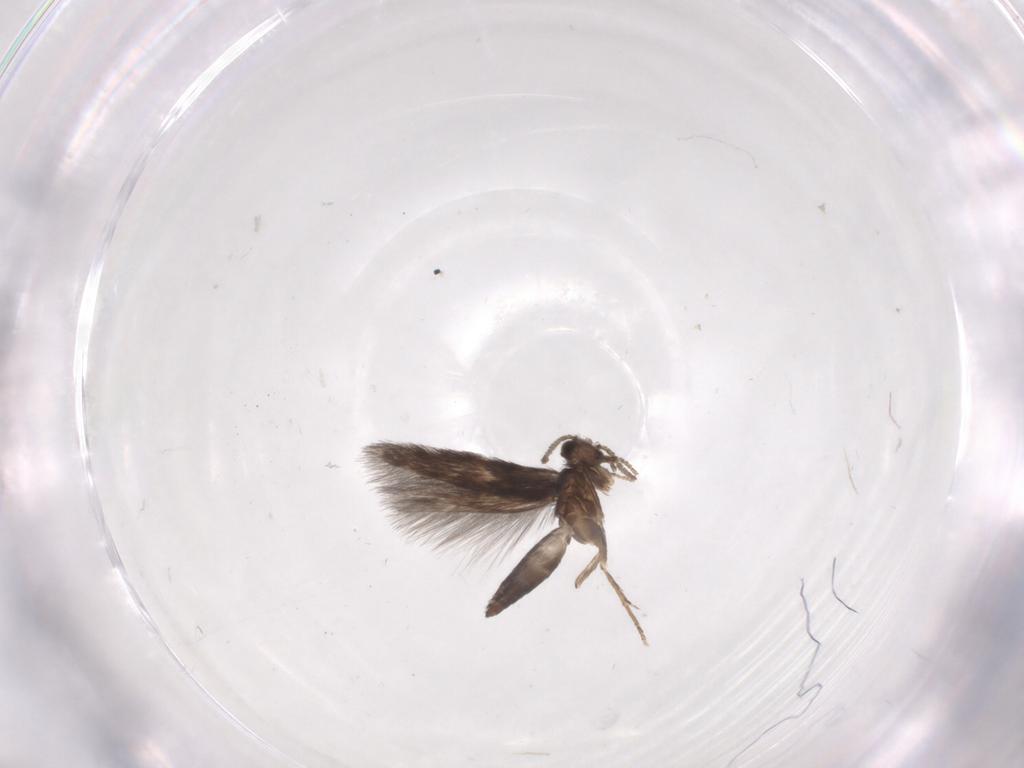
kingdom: Animalia
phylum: Arthropoda
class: Insecta
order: Trichoptera
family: Hydroptilidae
